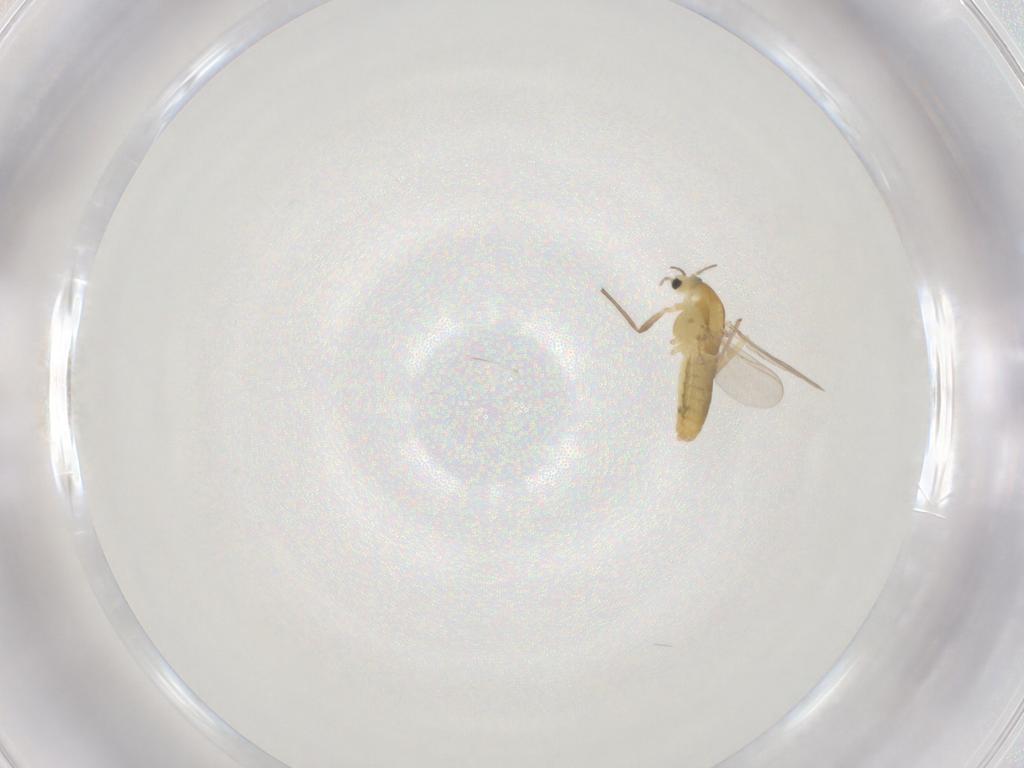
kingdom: Animalia
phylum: Arthropoda
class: Insecta
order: Diptera
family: Chironomidae
